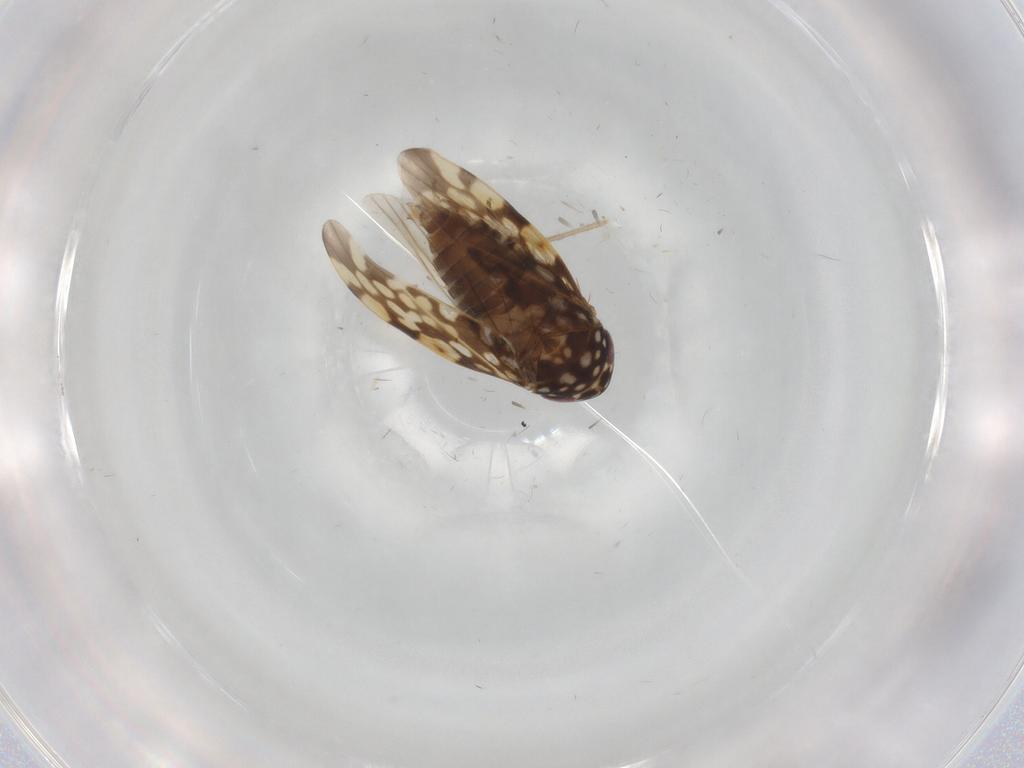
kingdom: Animalia
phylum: Arthropoda
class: Insecta
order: Hemiptera
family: Cicadellidae
